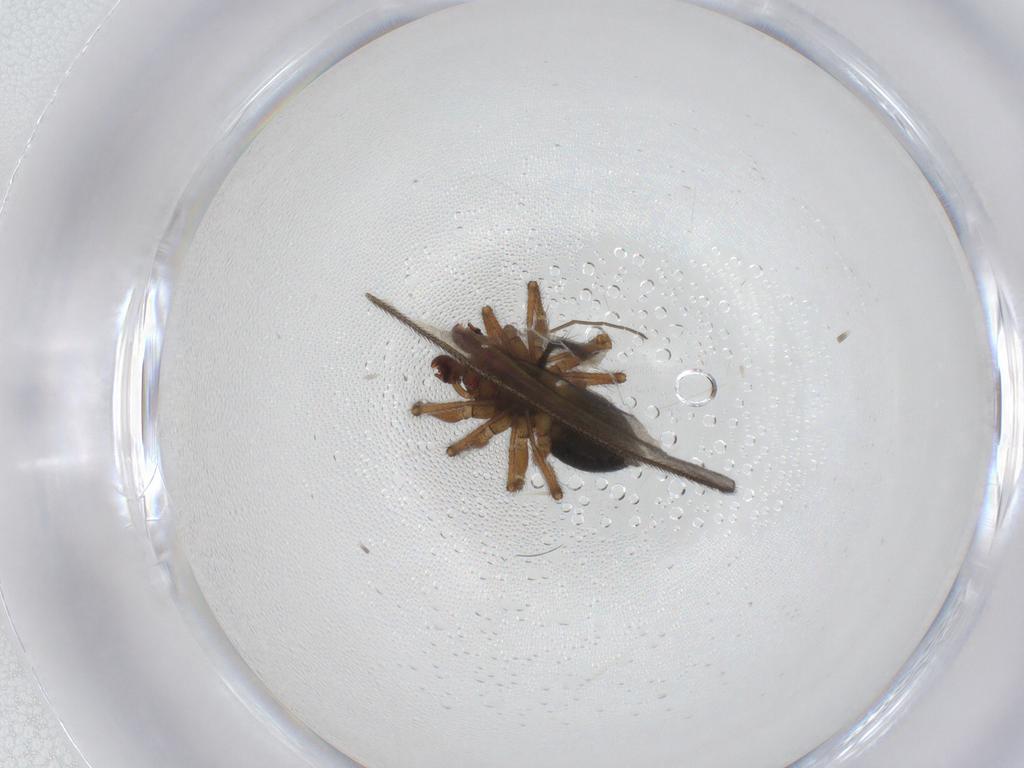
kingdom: Animalia
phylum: Arthropoda
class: Insecta
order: Diptera
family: Bibionidae
